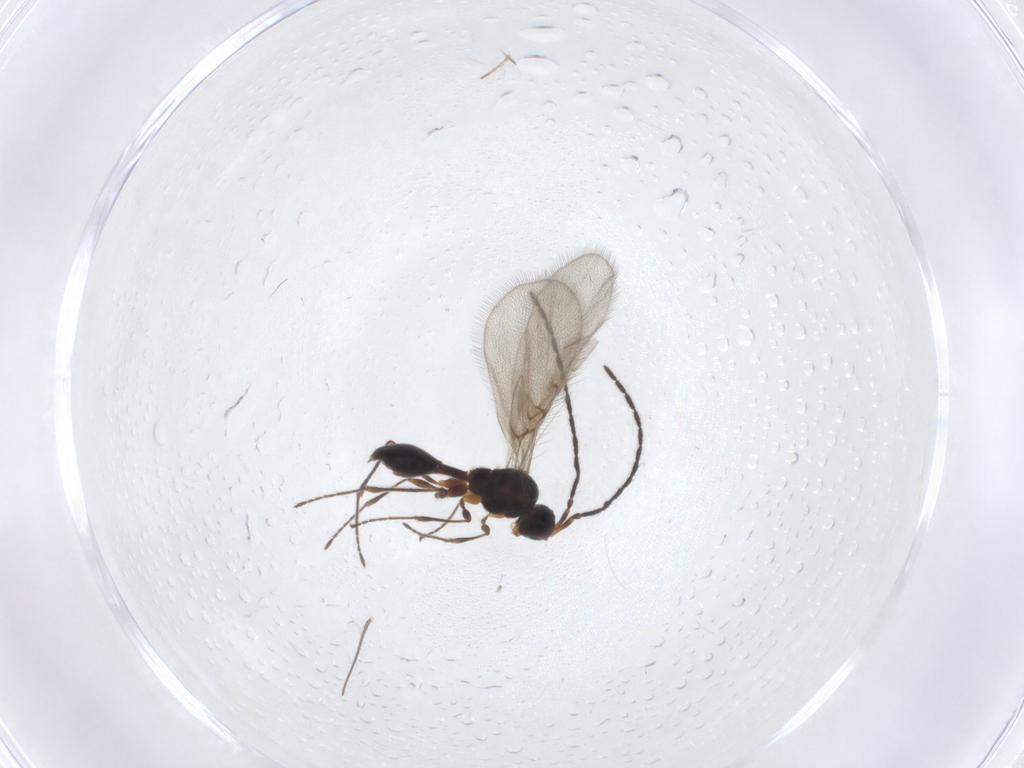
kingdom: Animalia
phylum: Arthropoda
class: Insecta
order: Hymenoptera
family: Diapriidae
